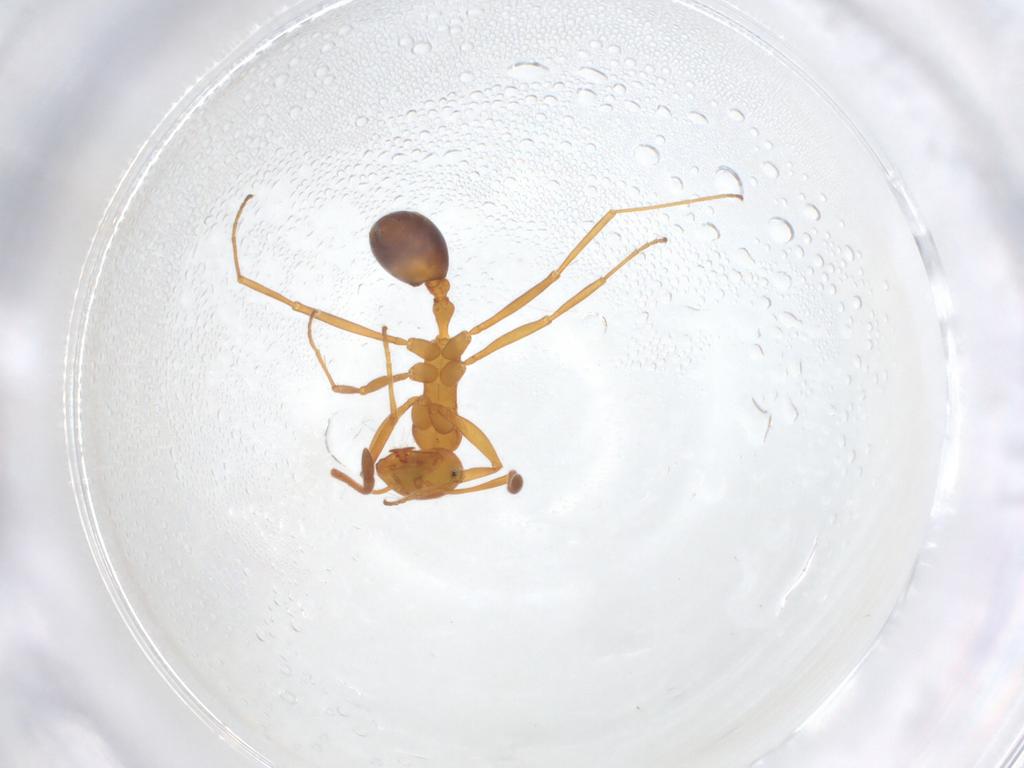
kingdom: Animalia
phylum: Arthropoda
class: Insecta
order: Hymenoptera
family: Formicidae
